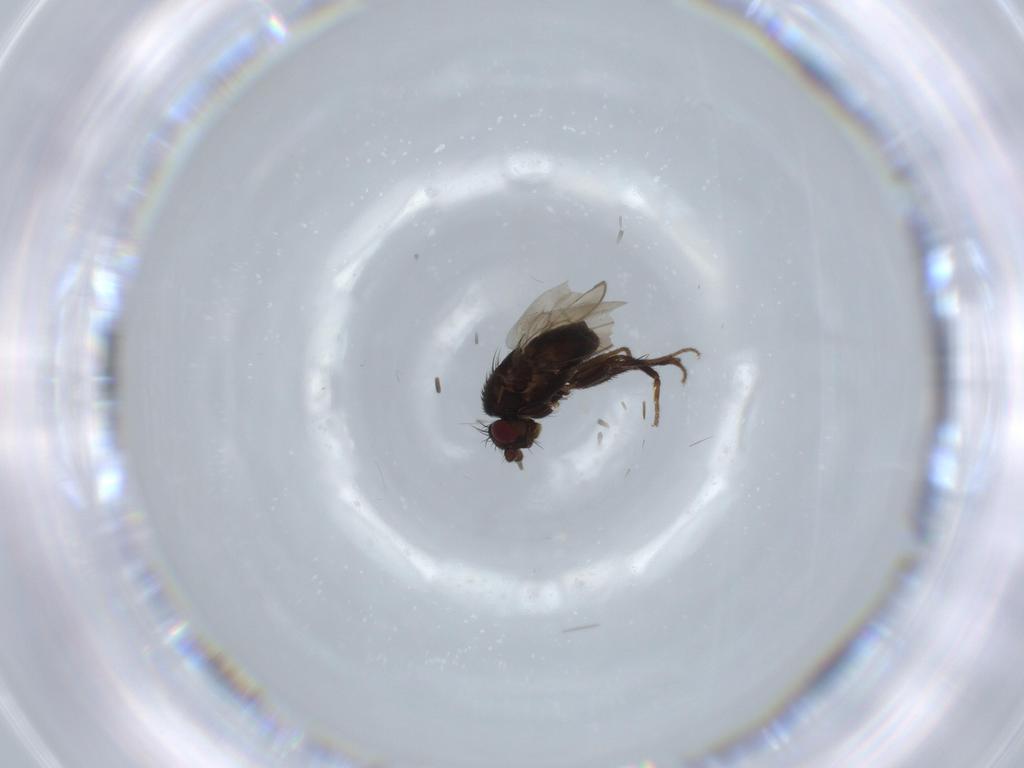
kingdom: Animalia
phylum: Arthropoda
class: Insecta
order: Diptera
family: Sphaeroceridae
